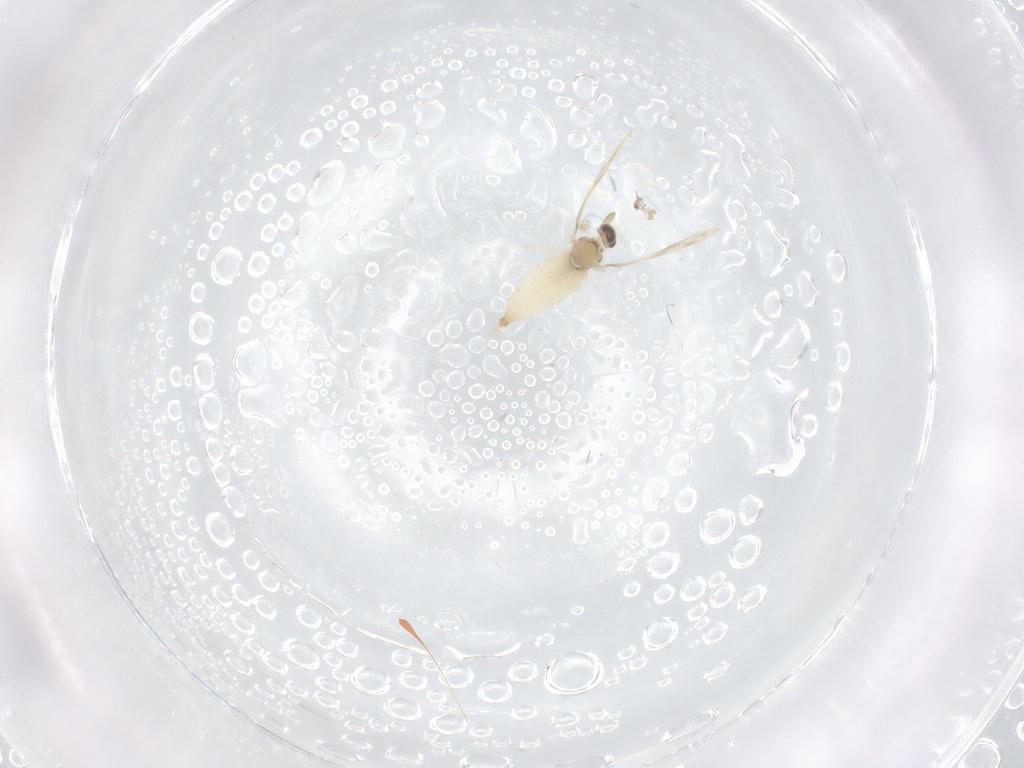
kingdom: Animalia
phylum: Arthropoda
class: Insecta
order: Diptera
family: Cecidomyiidae
